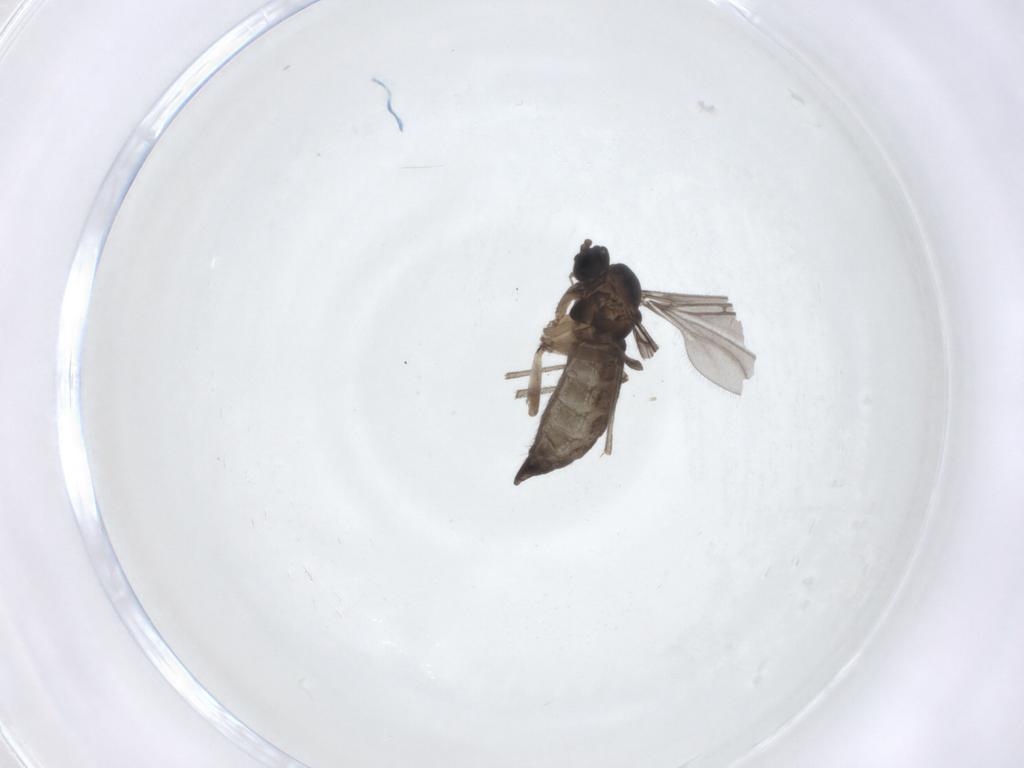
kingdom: Animalia
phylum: Arthropoda
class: Insecta
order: Diptera
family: Sciaridae
